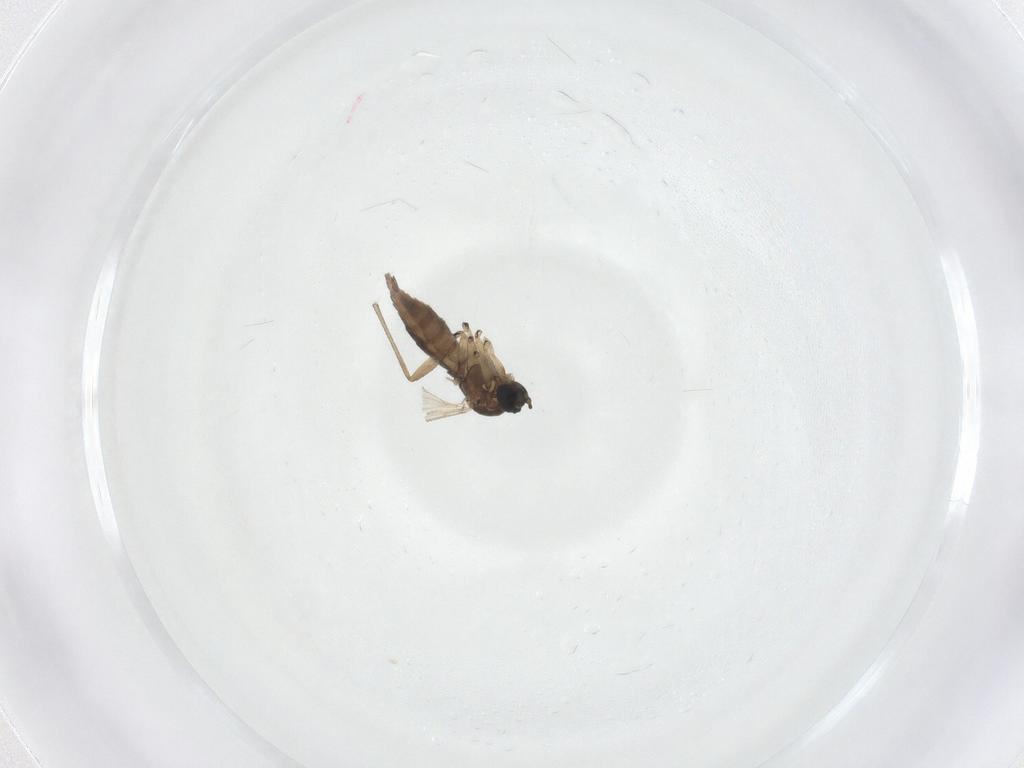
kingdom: Animalia
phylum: Arthropoda
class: Insecta
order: Diptera
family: Sciaridae
